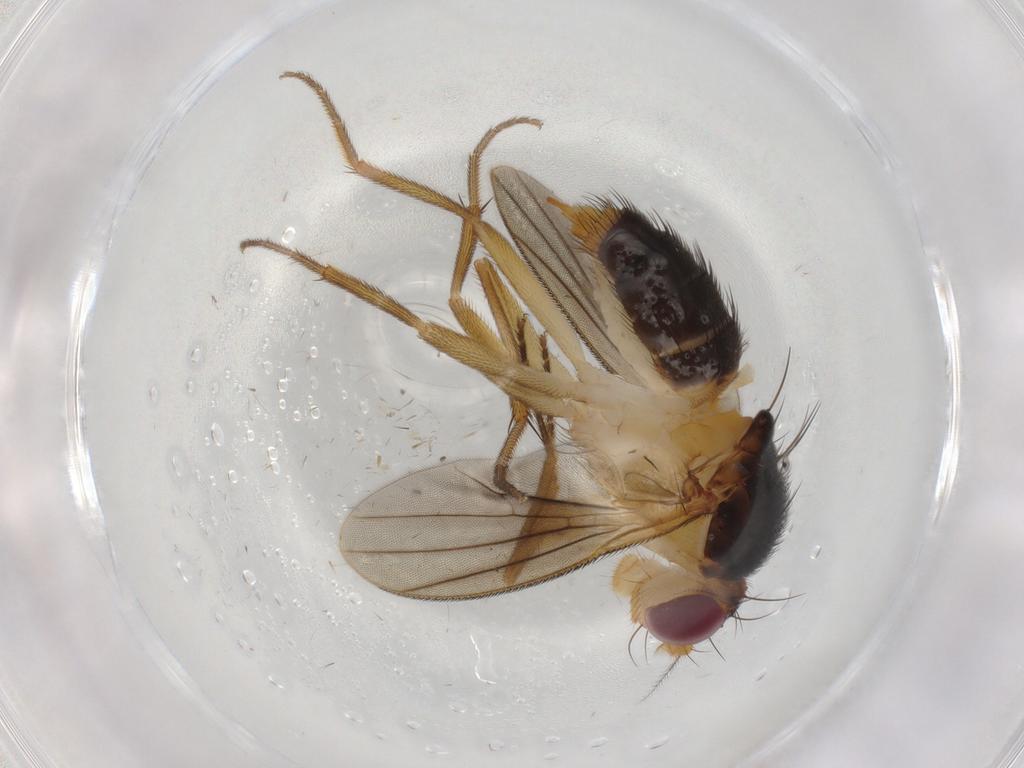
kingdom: Animalia
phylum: Arthropoda
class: Insecta
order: Diptera
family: Clusiidae
